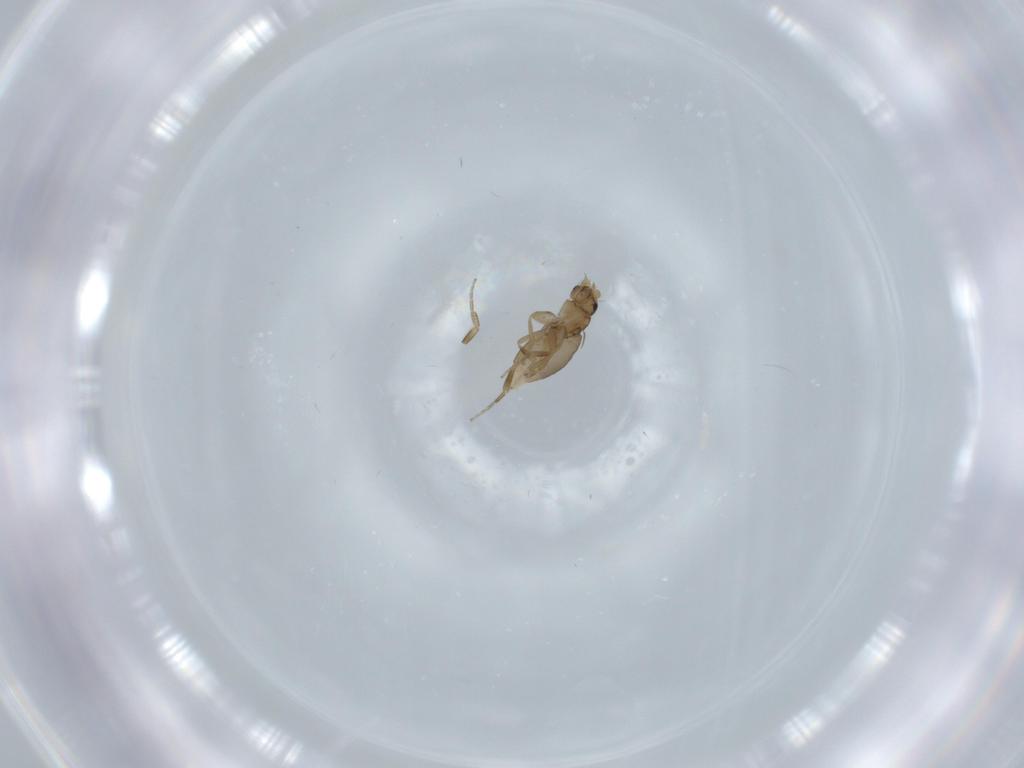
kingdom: Animalia
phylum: Arthropoda
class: Insecta
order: Diptera
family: Phoridae
